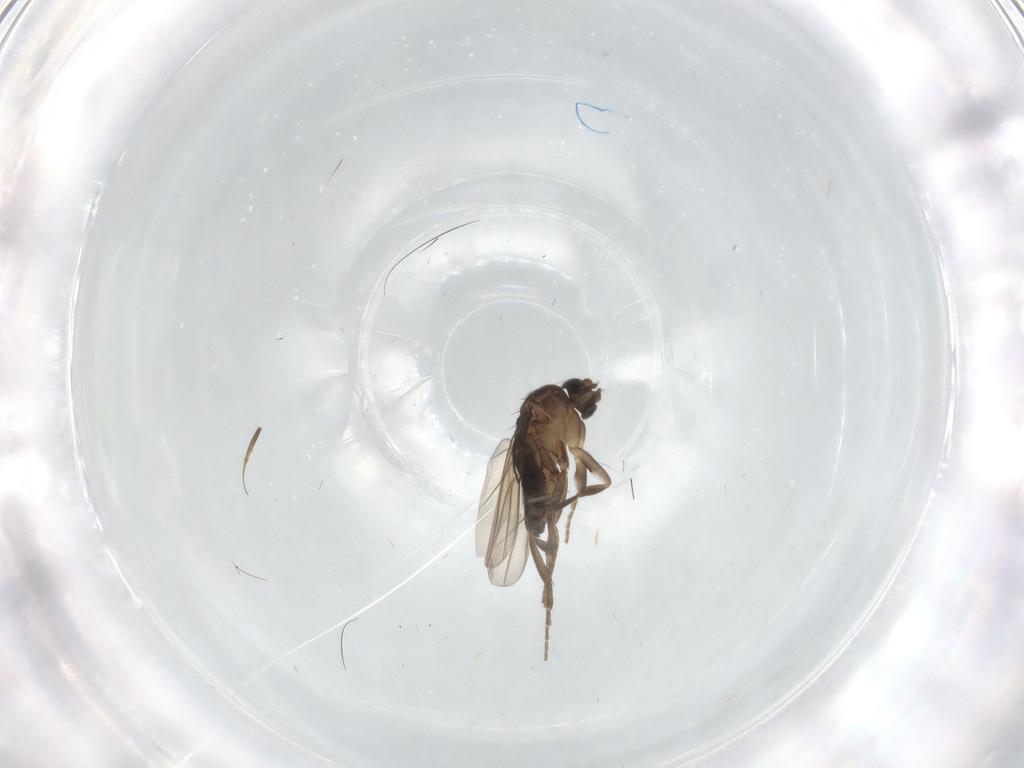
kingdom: Animalia
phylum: Arthropoda
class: Insecta
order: Diptera
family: Phoridae
